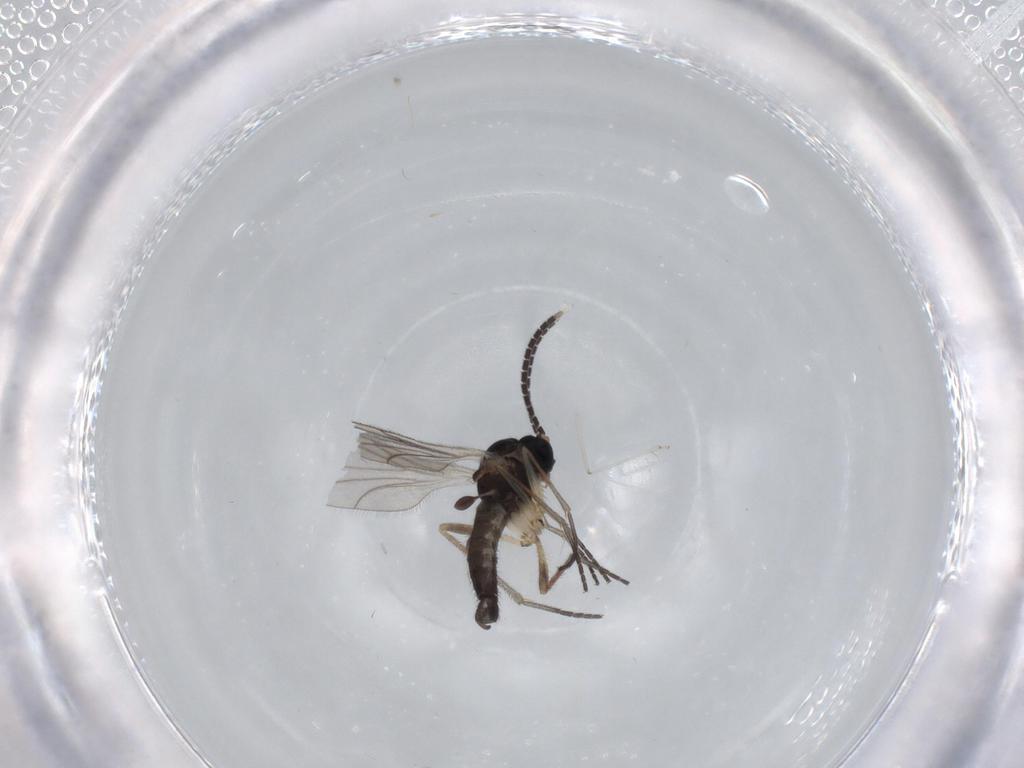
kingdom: Animalia
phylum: Arthropoda
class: Insecta
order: Diptera
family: Sciaridae
